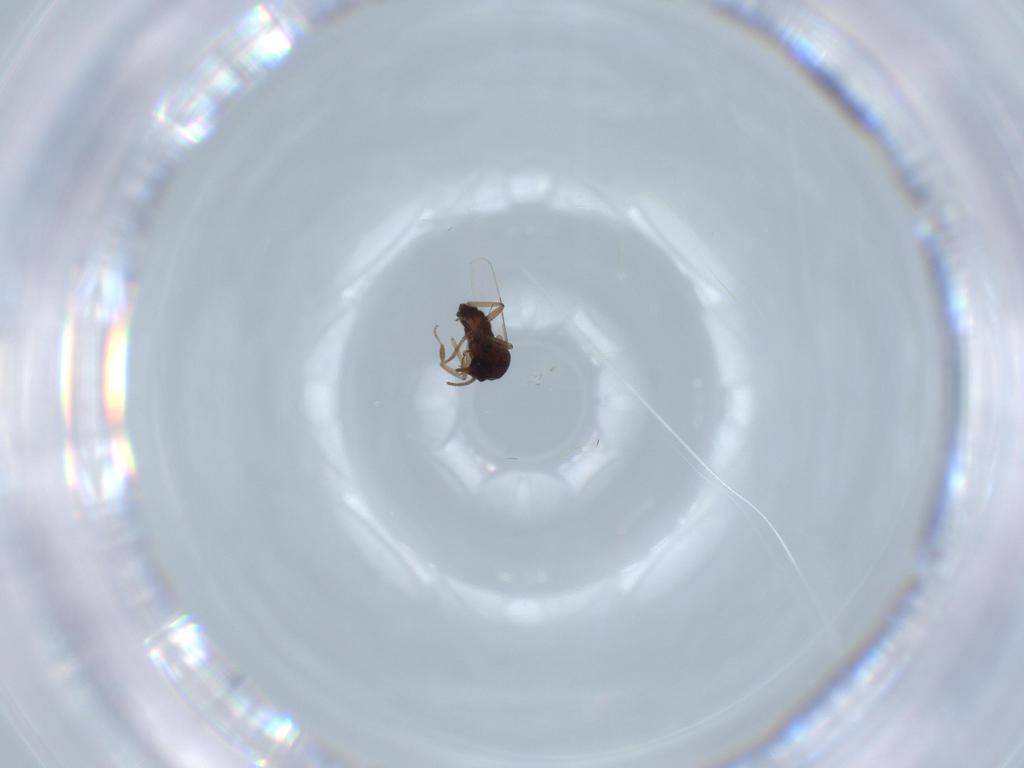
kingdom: Animalia
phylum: Arthropoda
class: Insecta
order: Diptera
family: Ceratopogonidae
